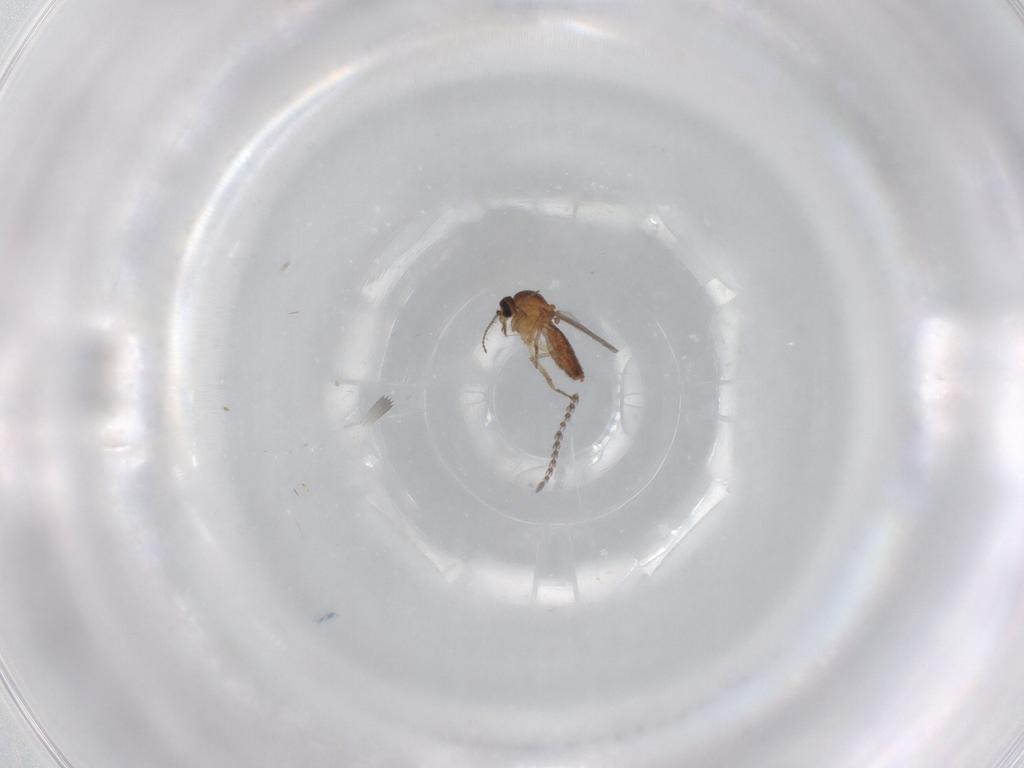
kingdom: Animalia
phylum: Arthropoda
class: Insecta
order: Diptera
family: Ceratopogonidae
